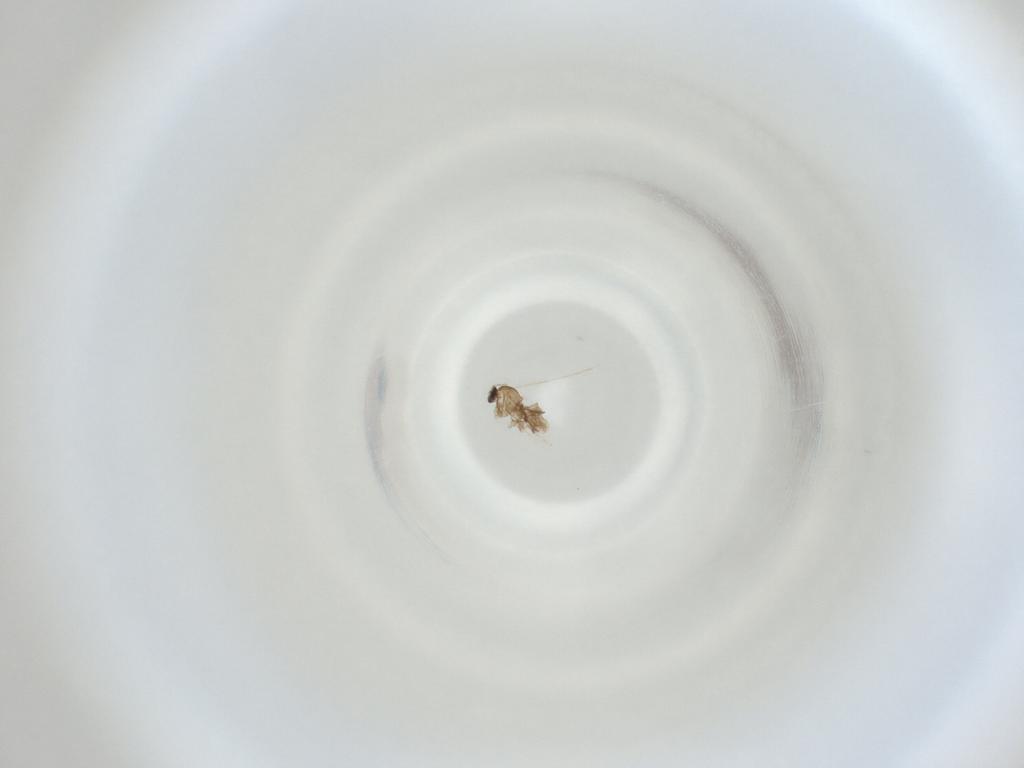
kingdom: Animalia
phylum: Arthropoda
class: Insecta
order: Diptera
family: Cecidomyiidae
